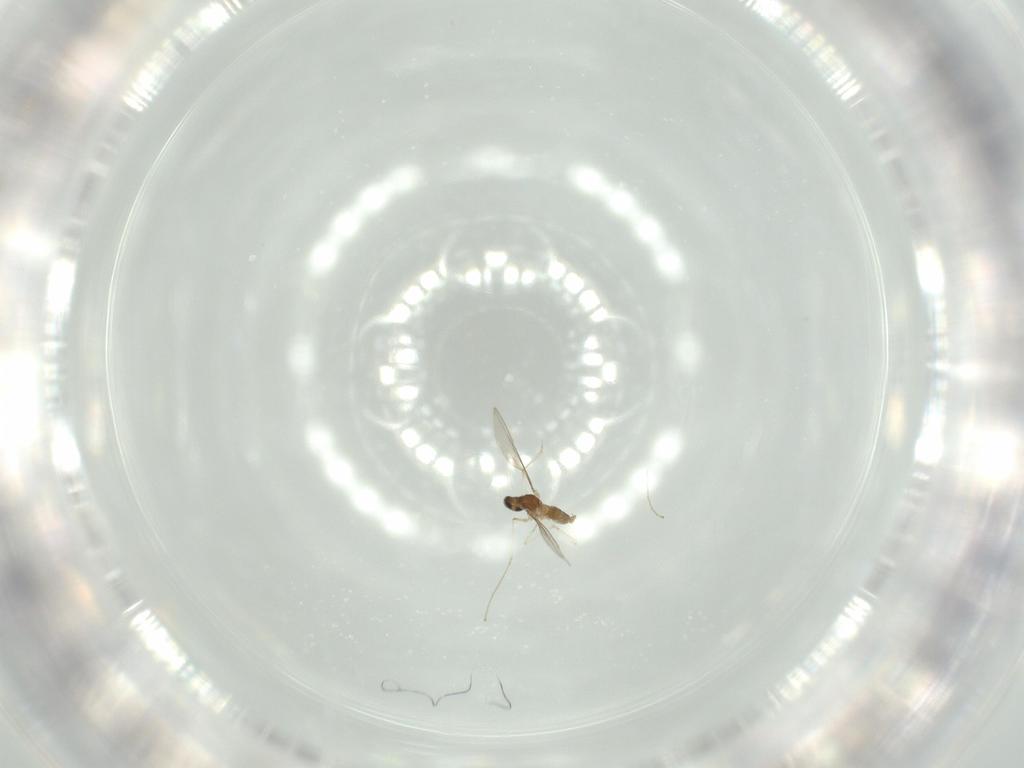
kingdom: Animalia
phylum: Arthropoda
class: Insecta
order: Diptera
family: Cecidomyiidae
